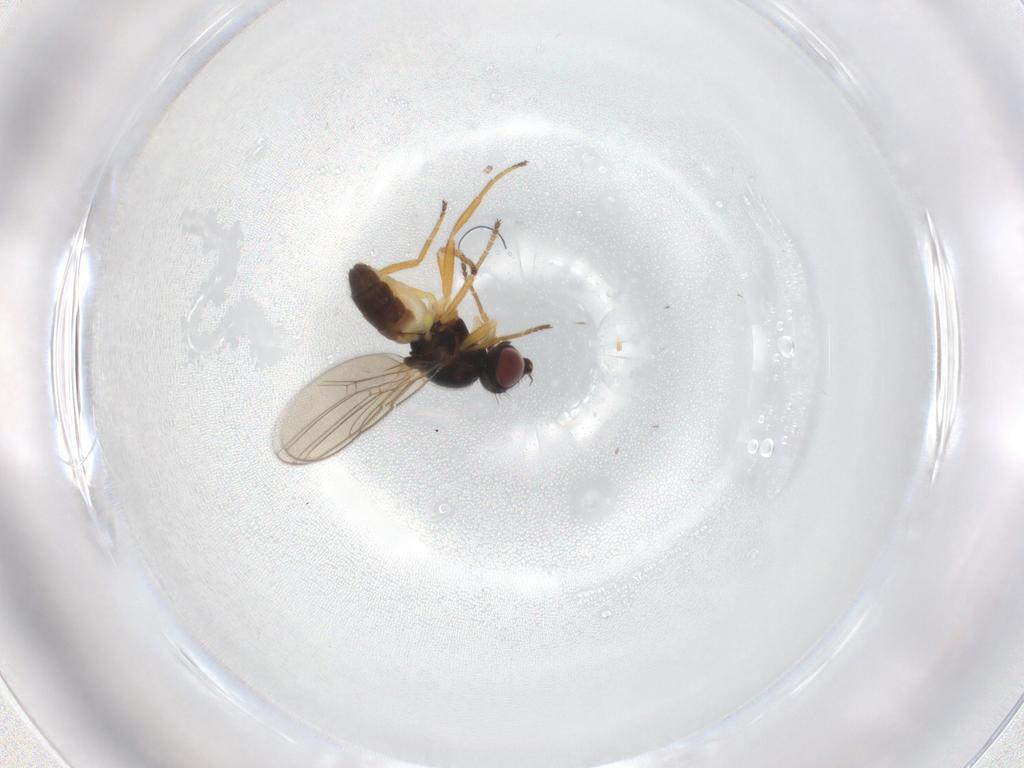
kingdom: Animalia
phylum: Arthropoda
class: Insecta
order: Diptera
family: Chloropidae
